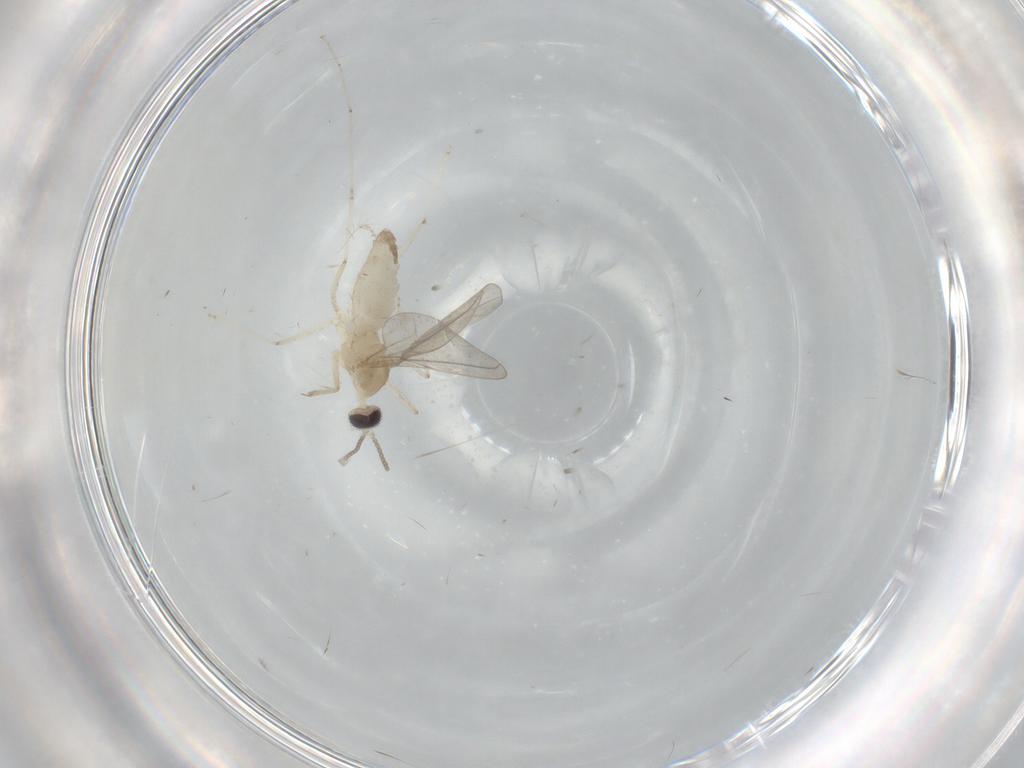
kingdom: Animalia
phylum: Arthropoda
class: Insecta
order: Diptera
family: Cecidomyiidae
